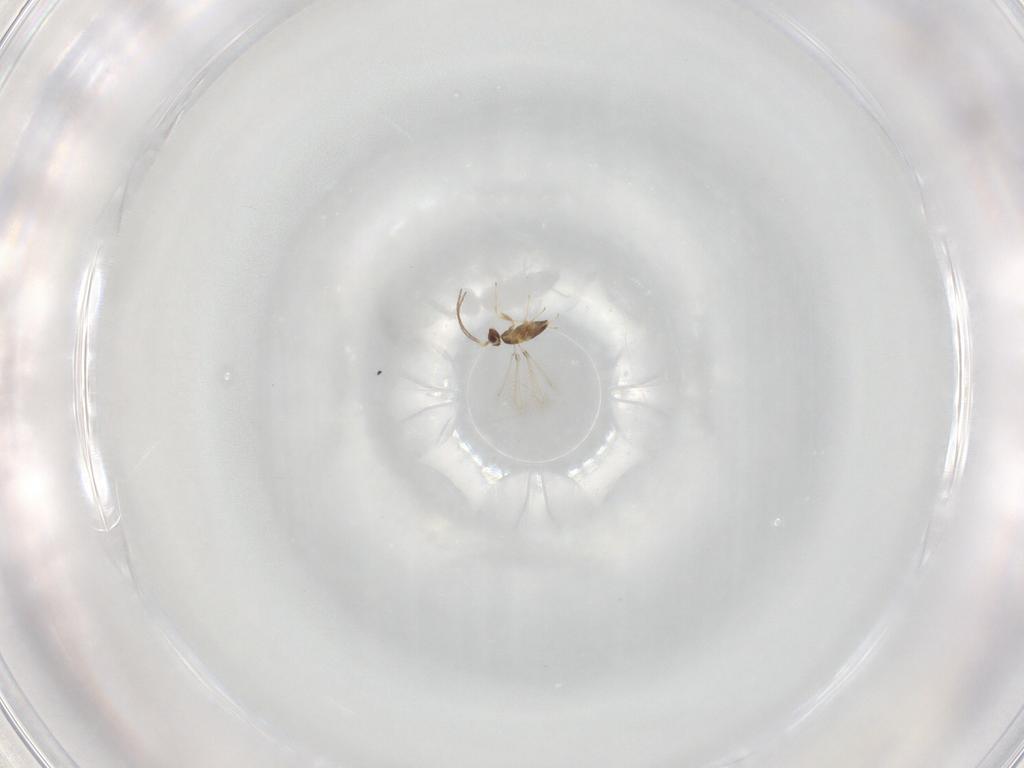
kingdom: Animalia
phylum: Arthropoda
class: Insecta
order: Hymenoptera
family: Mymaridae
